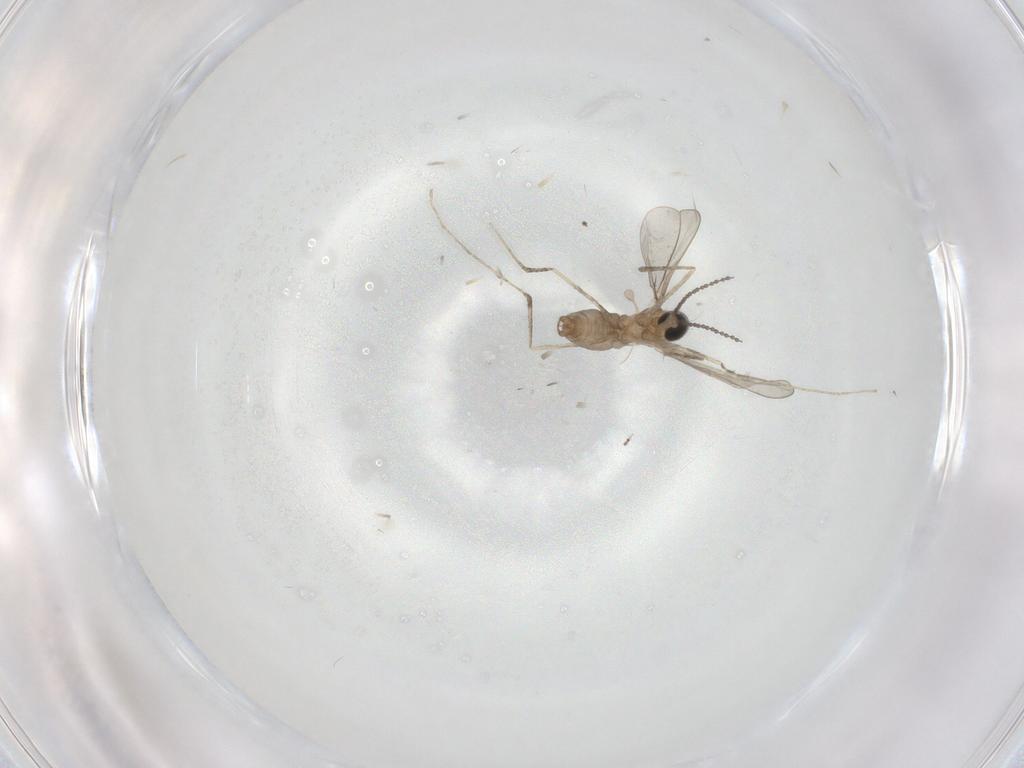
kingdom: Animalia
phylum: Arthropoda
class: Insecta
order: Diptera
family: Cecidomyiidae
